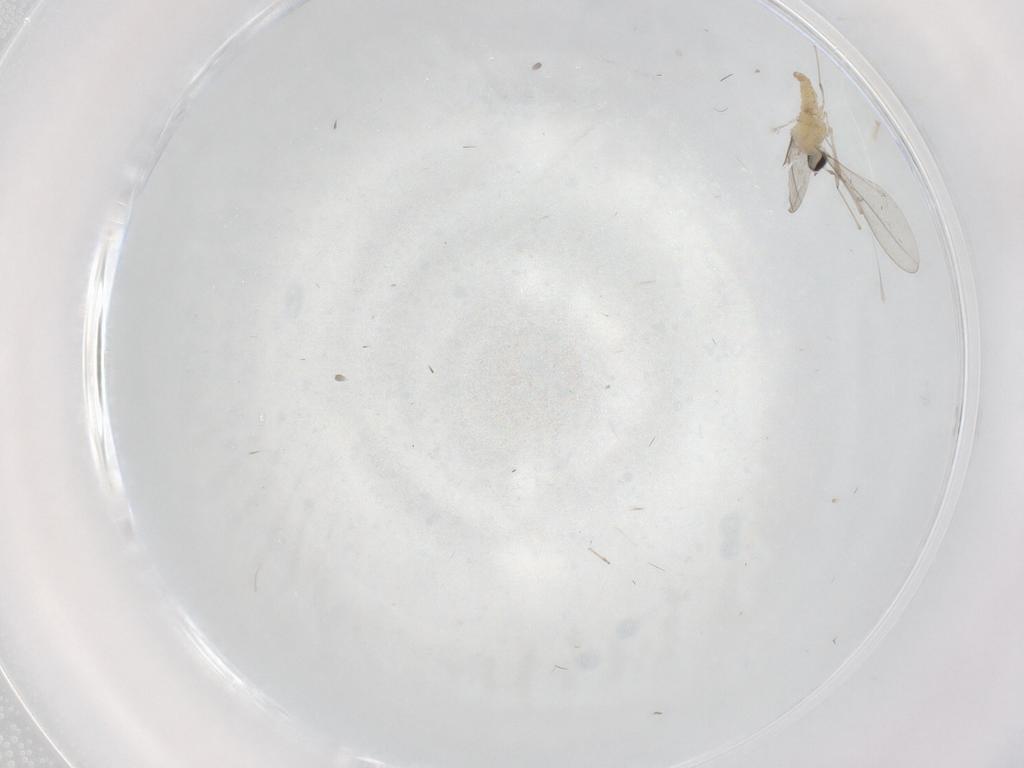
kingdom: Animalia
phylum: Arthropoda
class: Insecta
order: Diptera
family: Cecidomyiidae
